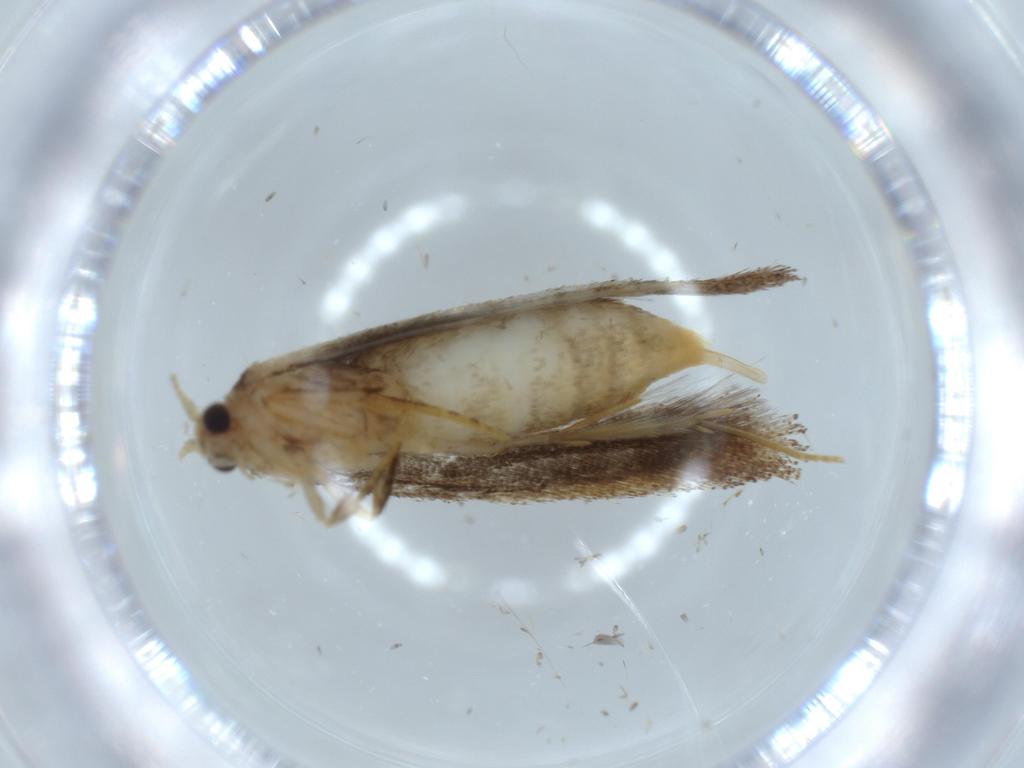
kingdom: Animalia
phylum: Arthropoda
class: Insecta
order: Lepidoptera
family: Tineidae
